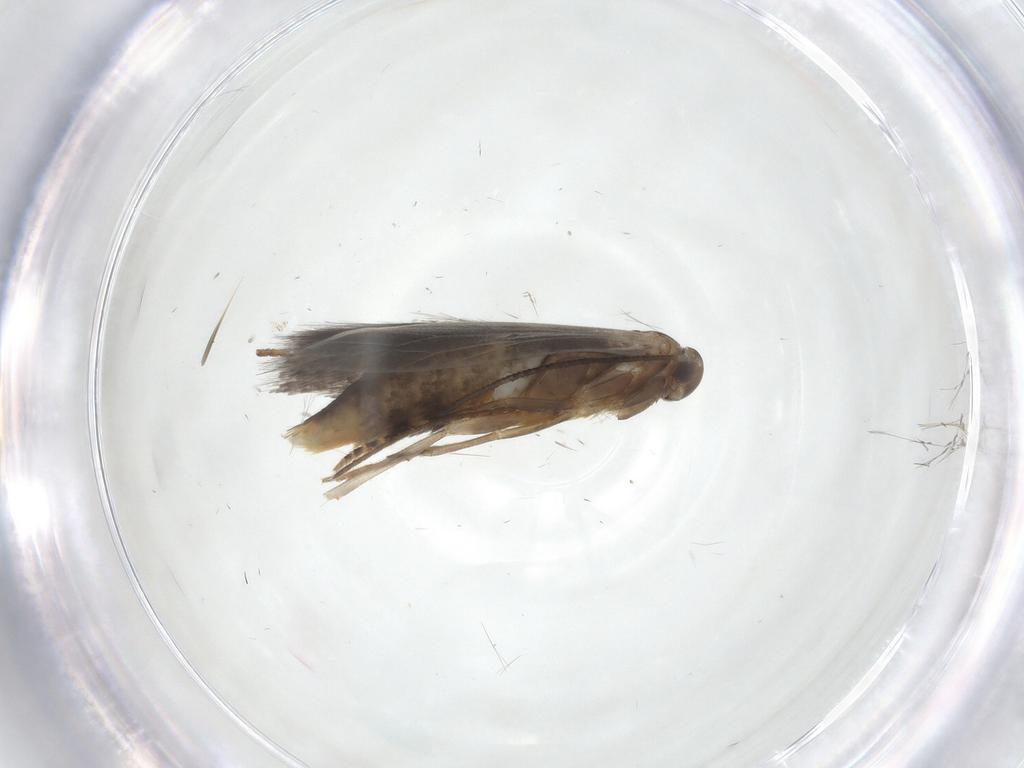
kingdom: Animalia
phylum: Arthropoda
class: Insecta
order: Lepidoptera
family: Elachistidae
